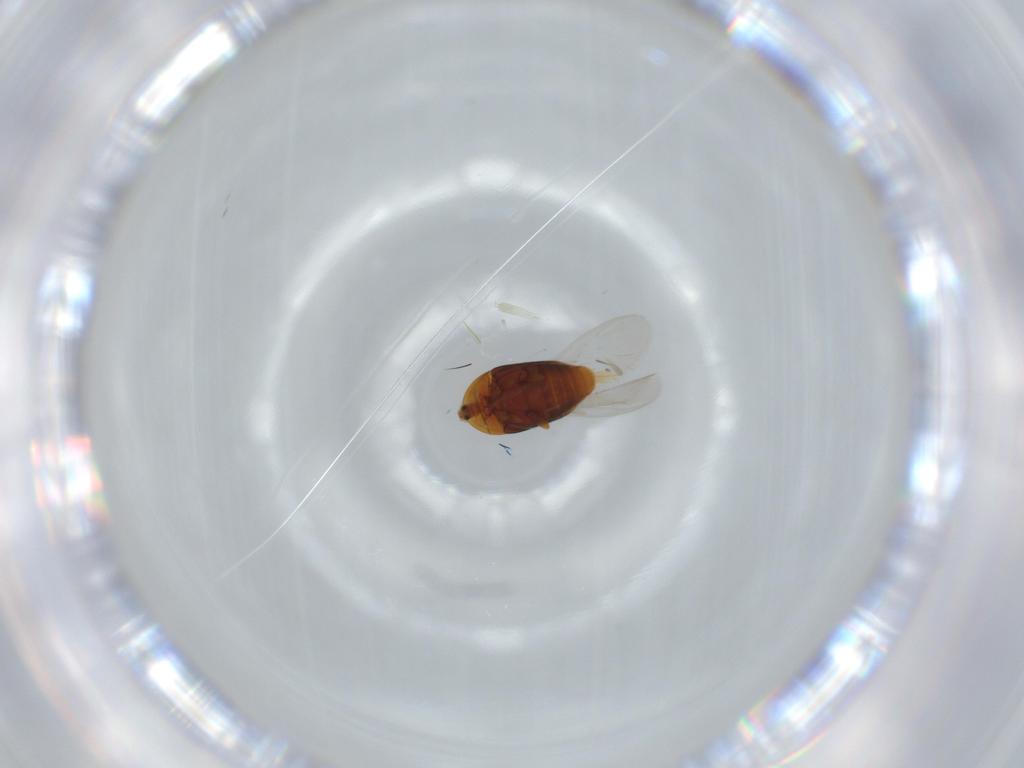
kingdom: Animalia
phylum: Arthropoda
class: Insecta
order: Coleoptera
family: Corylophidae
